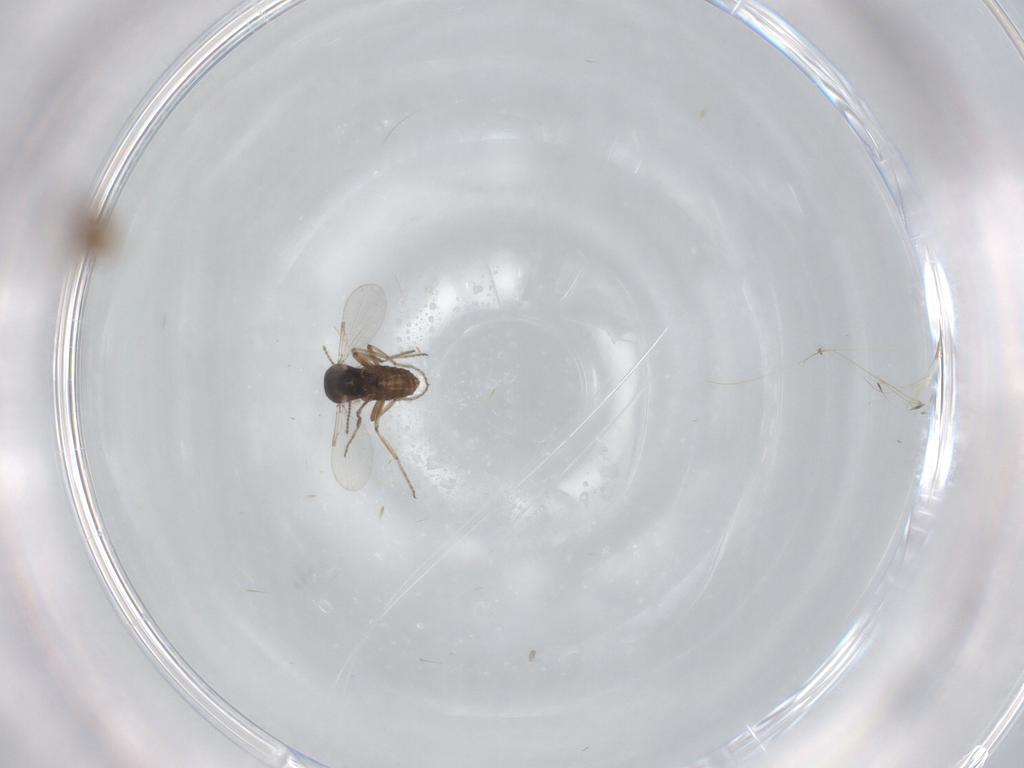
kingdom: Animalia
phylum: Arthropoda
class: Insecta
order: Diptera
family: Ceratopogonidae
